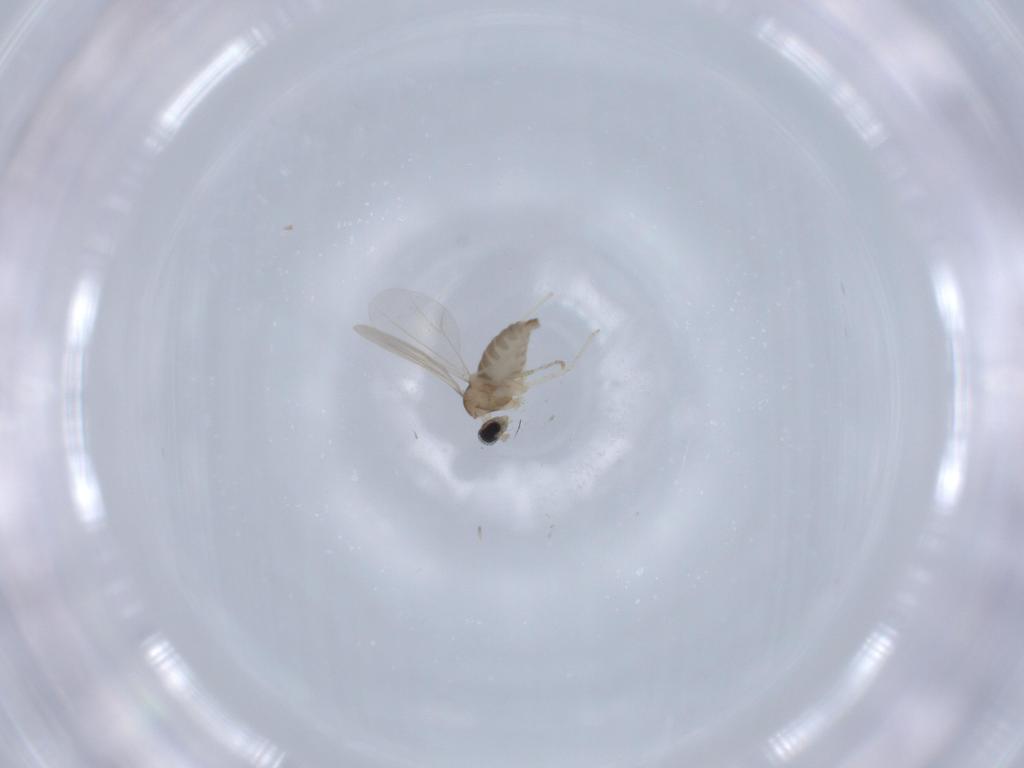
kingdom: Animalia
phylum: Arthropoda
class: Insecta
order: Diptera
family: Cecidomyiidae
